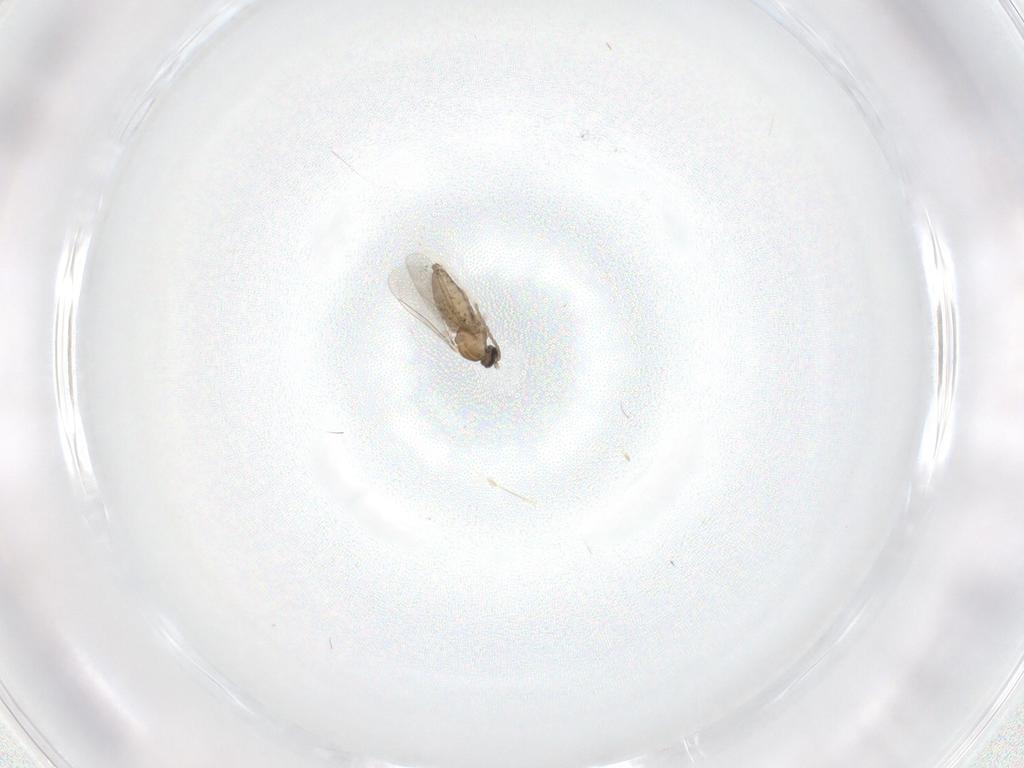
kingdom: Animalia
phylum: Arthropoda
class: Insecta
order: Diptera
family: Cecidomyiidae
